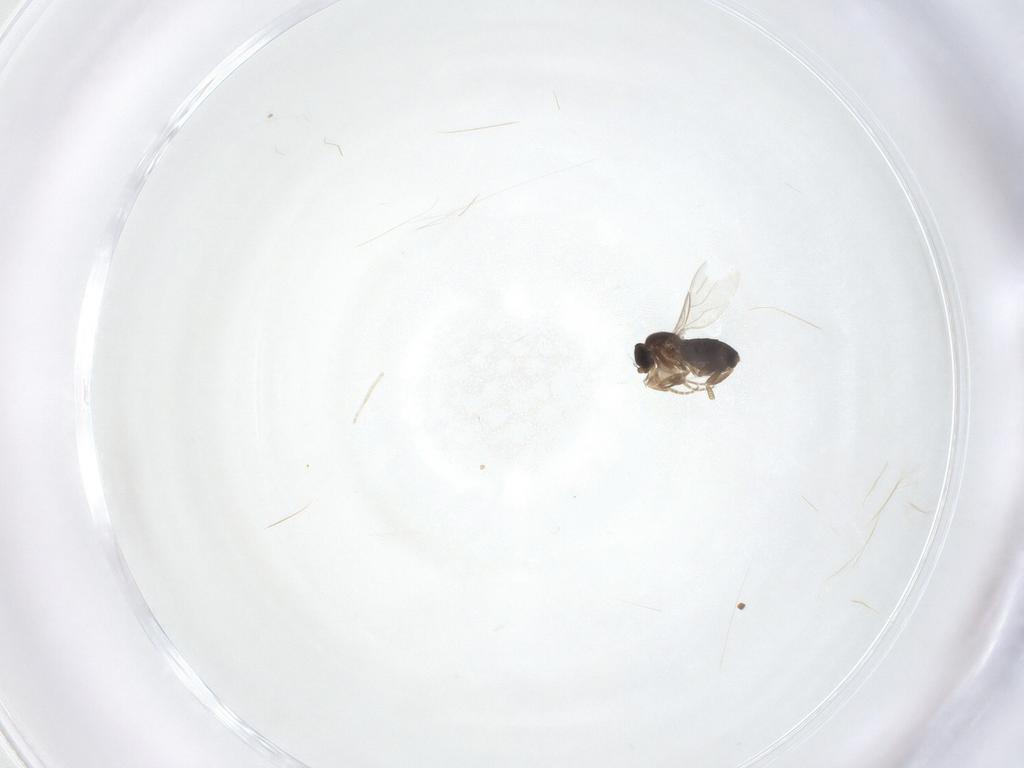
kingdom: Animalia
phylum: Arthropoda
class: Insecta
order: Diptera
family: Phoridae
